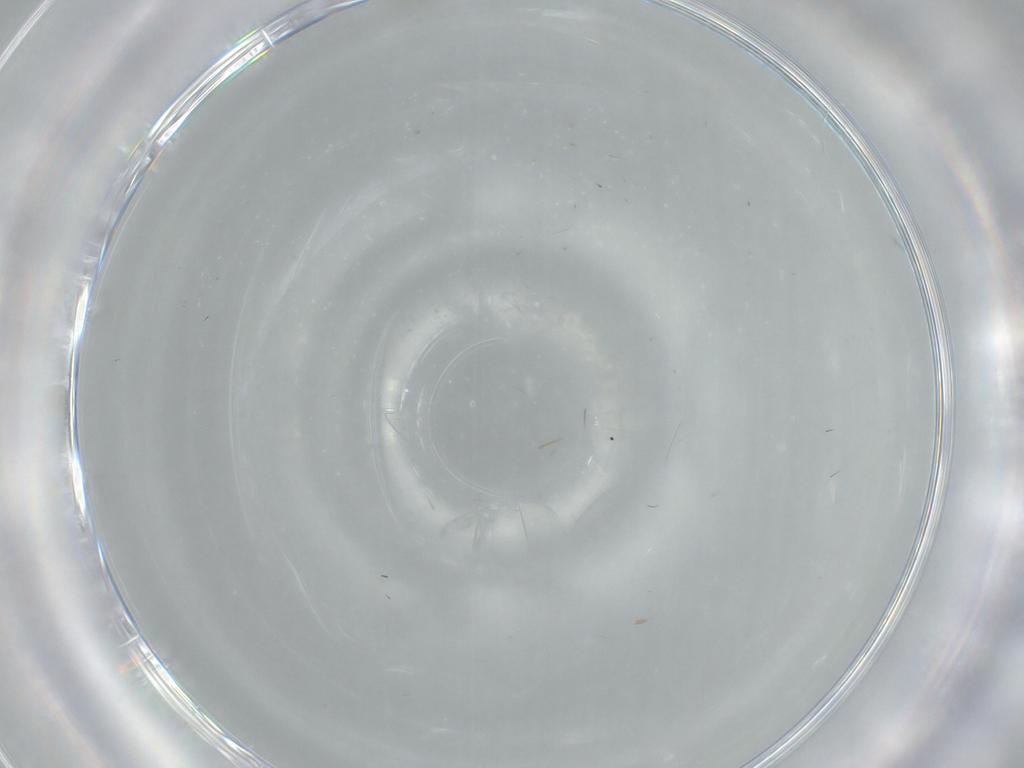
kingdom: Animalia
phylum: Arthropoda
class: Insecta
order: Diptera
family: Cecidomyiidae
